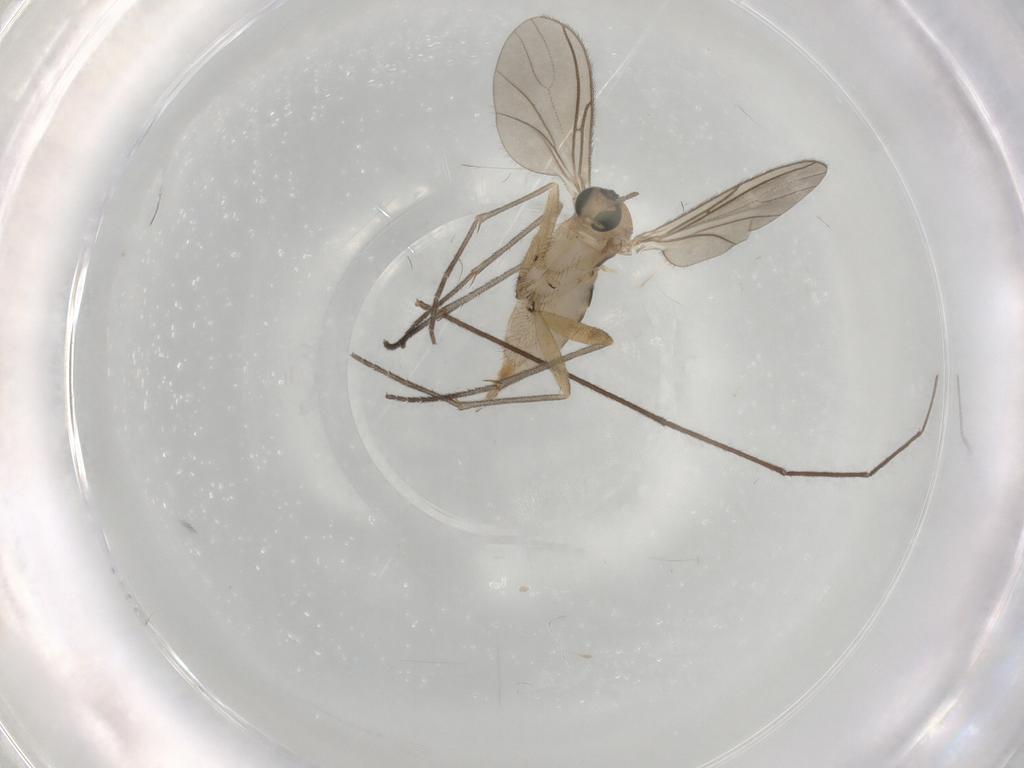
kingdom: Animalia
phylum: Arthropoda
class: Insecta
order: Diptera
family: Sciaridae
